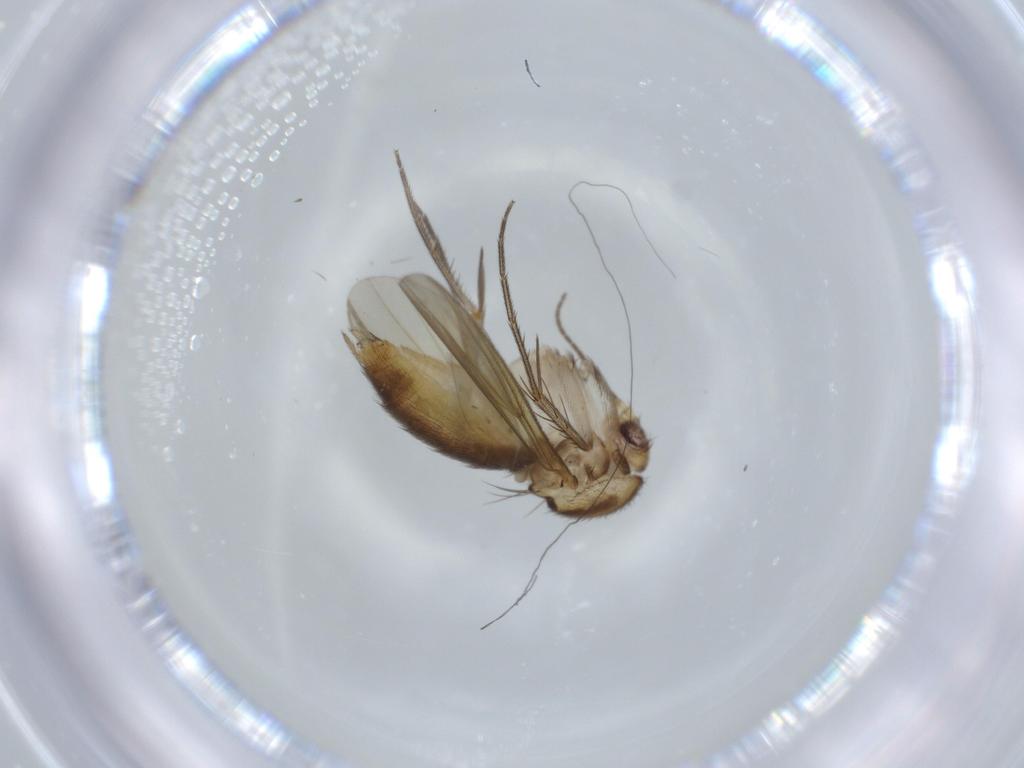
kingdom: Animalia
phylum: Arthropoda
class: Insecta
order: Diptera
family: Mycetophilidae
